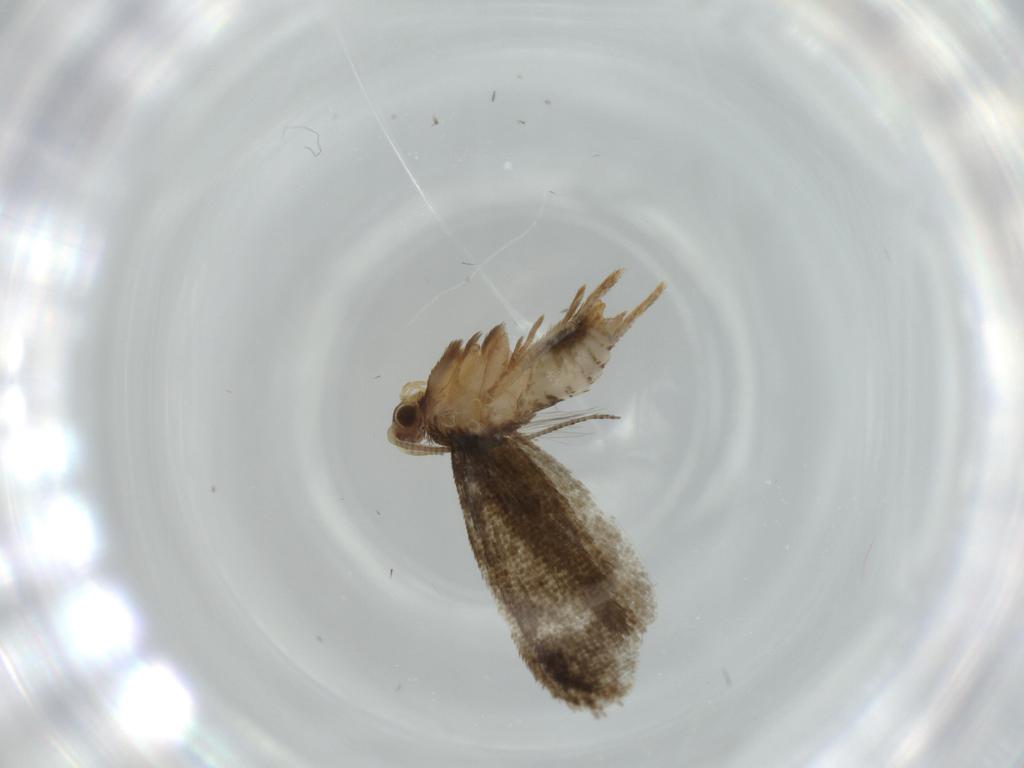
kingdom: Animalia
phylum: Arthropoda
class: Insecta
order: Lepidoptera
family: Tineidae
